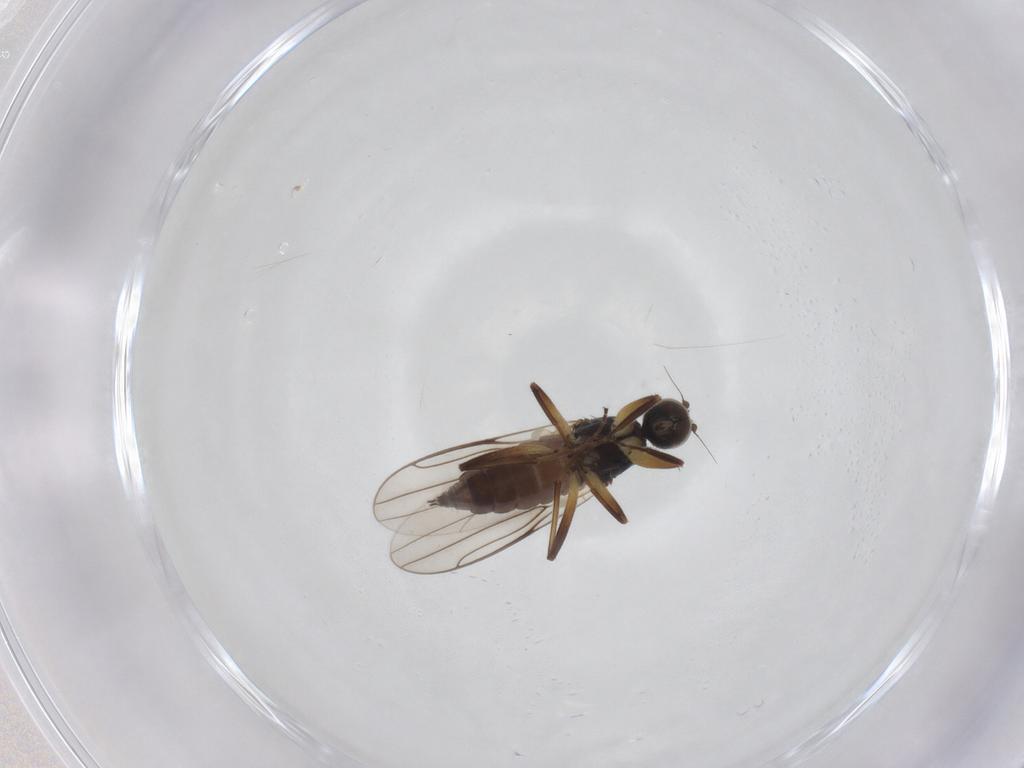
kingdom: Animalia
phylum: Arthropoda
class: Insecta
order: Diptera
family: Hybotidae
